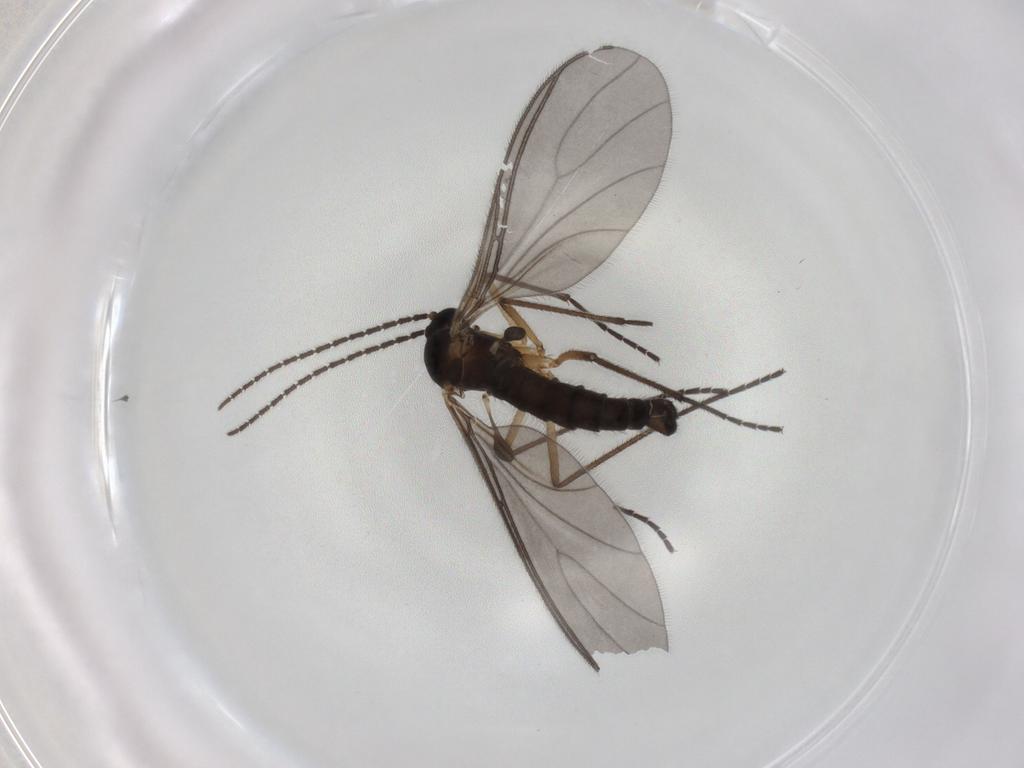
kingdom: Animalia
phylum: Arthropoda
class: Insecta
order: Diptera
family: Sciaridae
